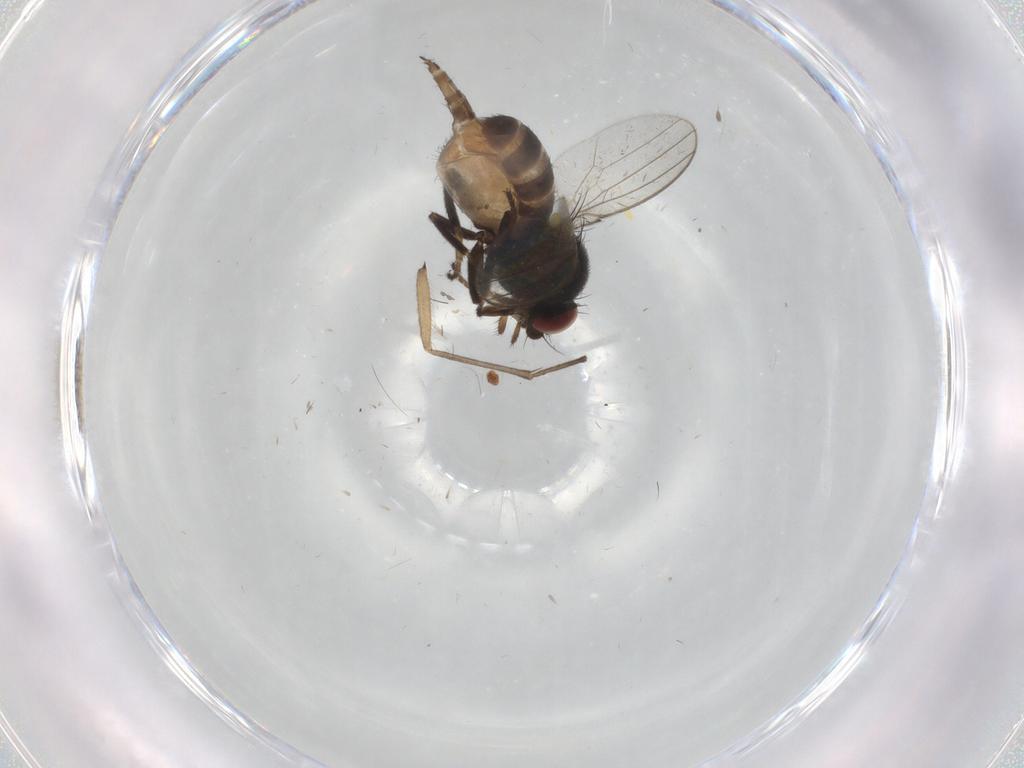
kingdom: Animalia
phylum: Arthropoda
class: Insecta
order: Diptera
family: Milichiidae
